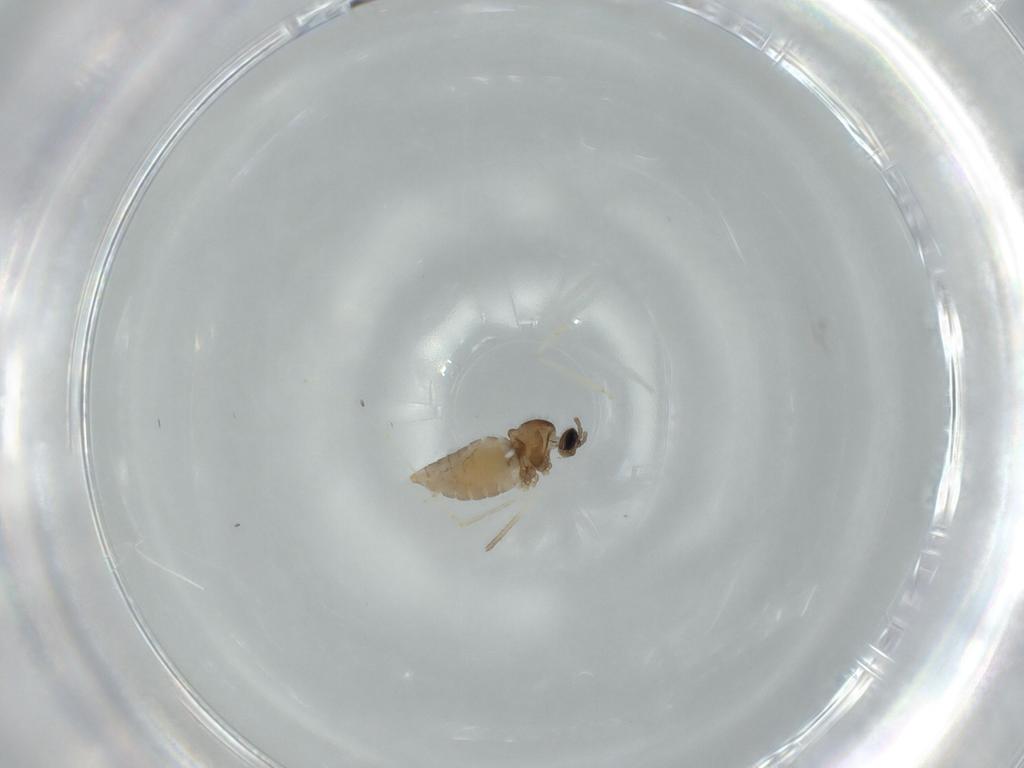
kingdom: Animalia
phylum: Arthropoda
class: Insecta
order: Diptera
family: Cecidomyiidae
